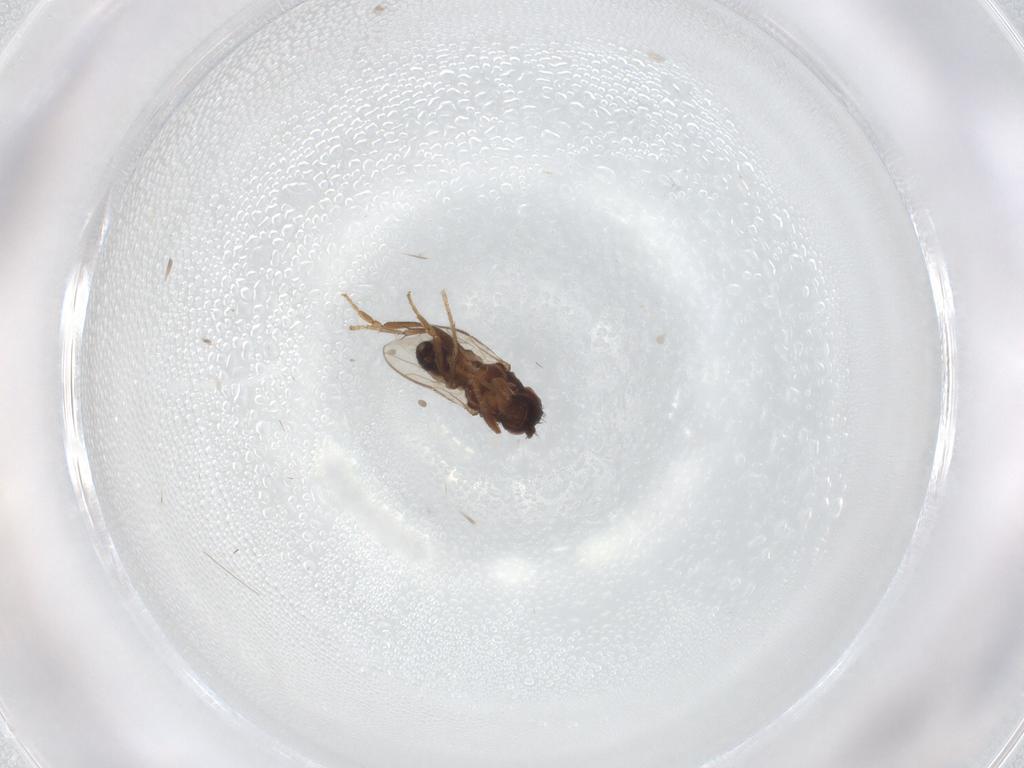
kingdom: Animalia
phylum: Arthropoda
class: Insecta
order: Diptera
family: Sphaeroceridae
